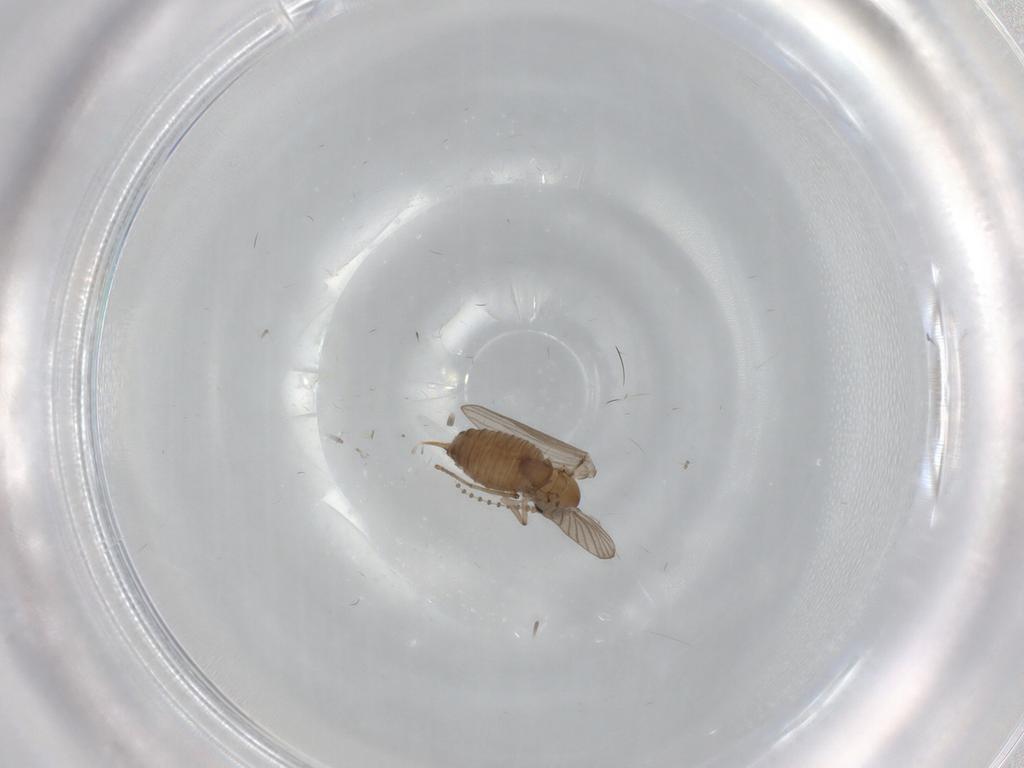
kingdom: Animalia
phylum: Arthropoda
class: Insecta
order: Diptera
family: Psychodidae
